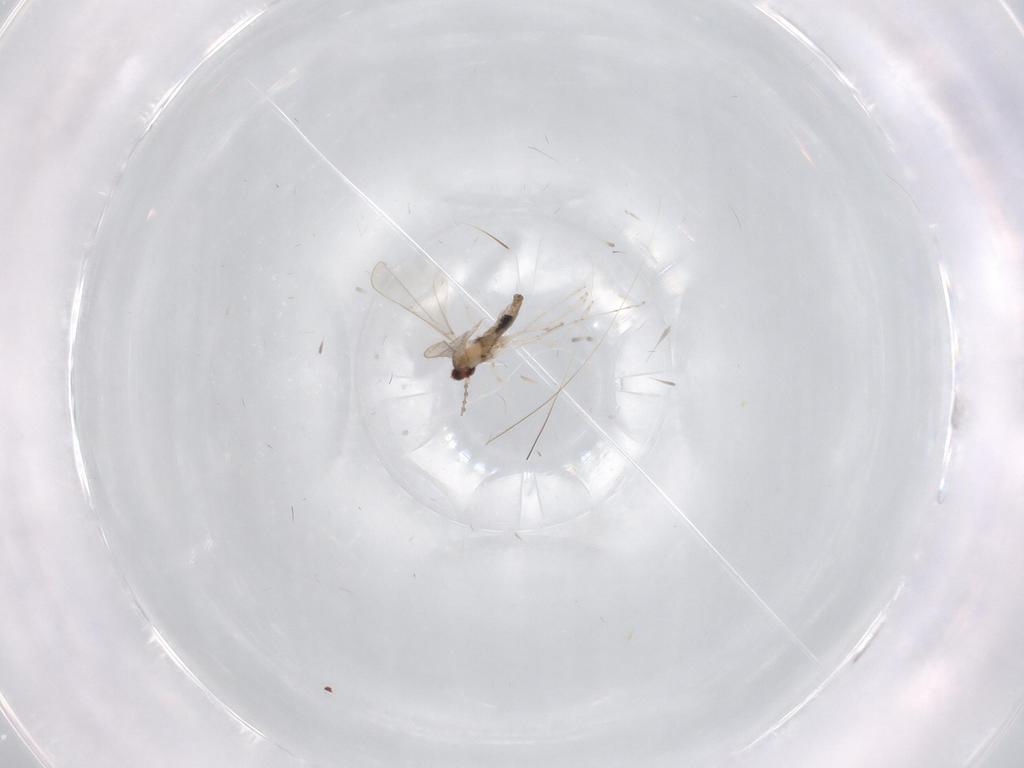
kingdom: Animalia
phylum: Arthropoda
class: Insecta
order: Diptera
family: Cecidomyiidae
